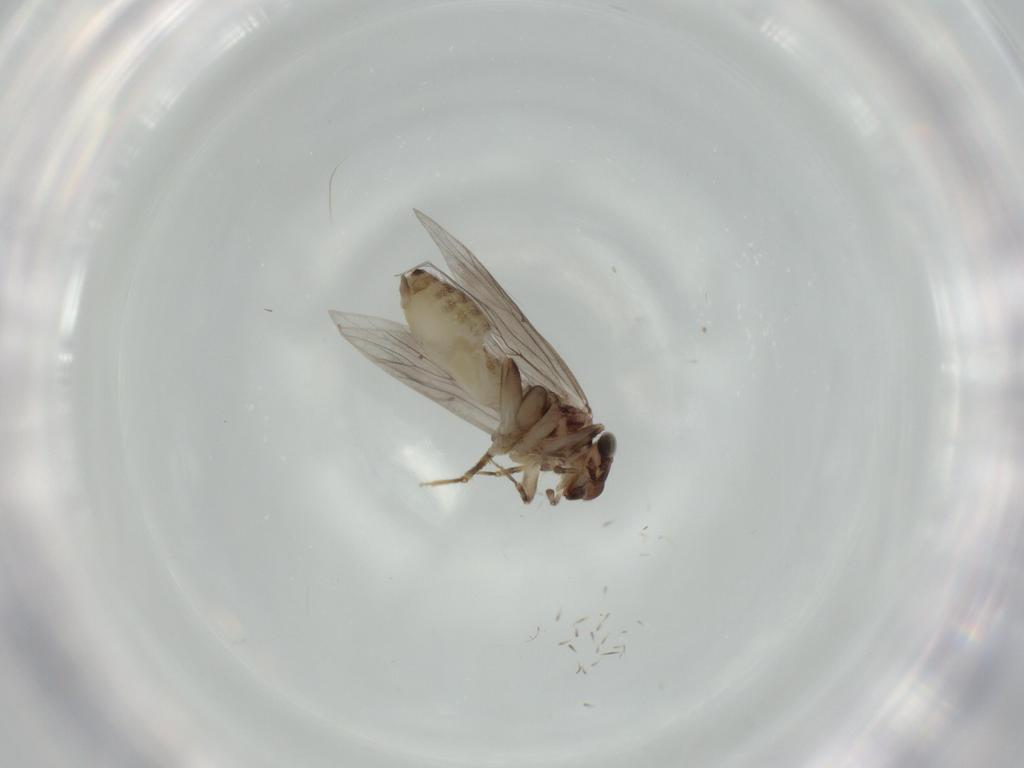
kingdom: Animalia
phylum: Arthropoda
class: Insecta
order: Psocodea
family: Lepidopsocidae
